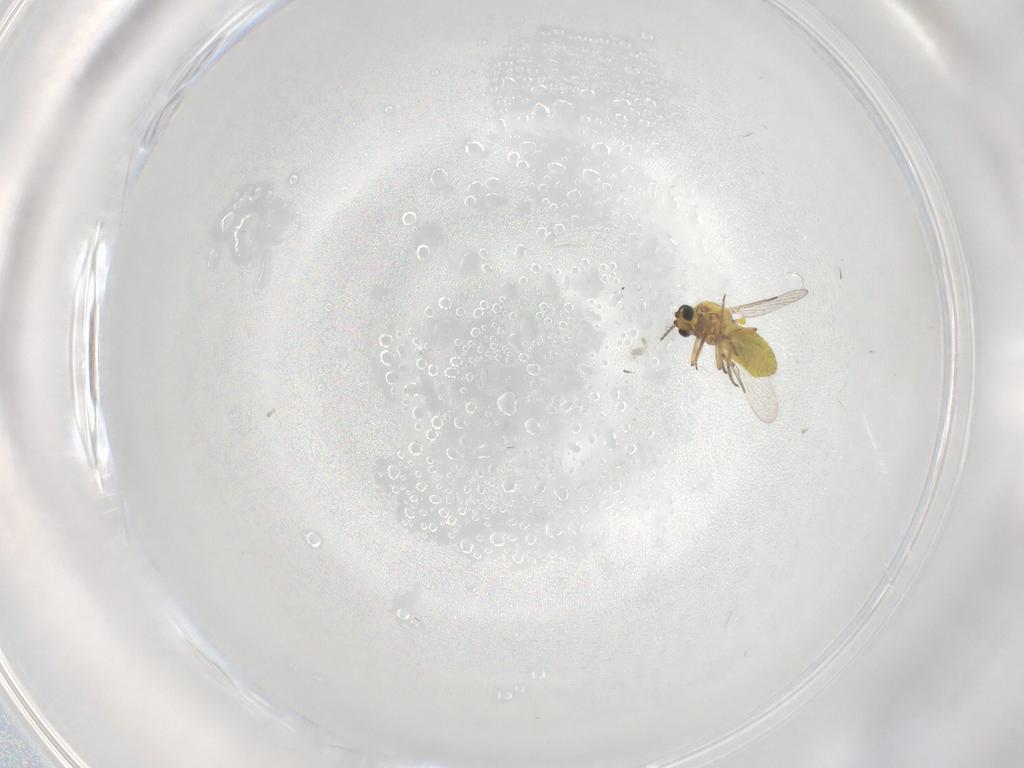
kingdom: Animalia
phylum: Arthropoda
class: Insecta
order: Diptera
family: Ceratopogonidae
